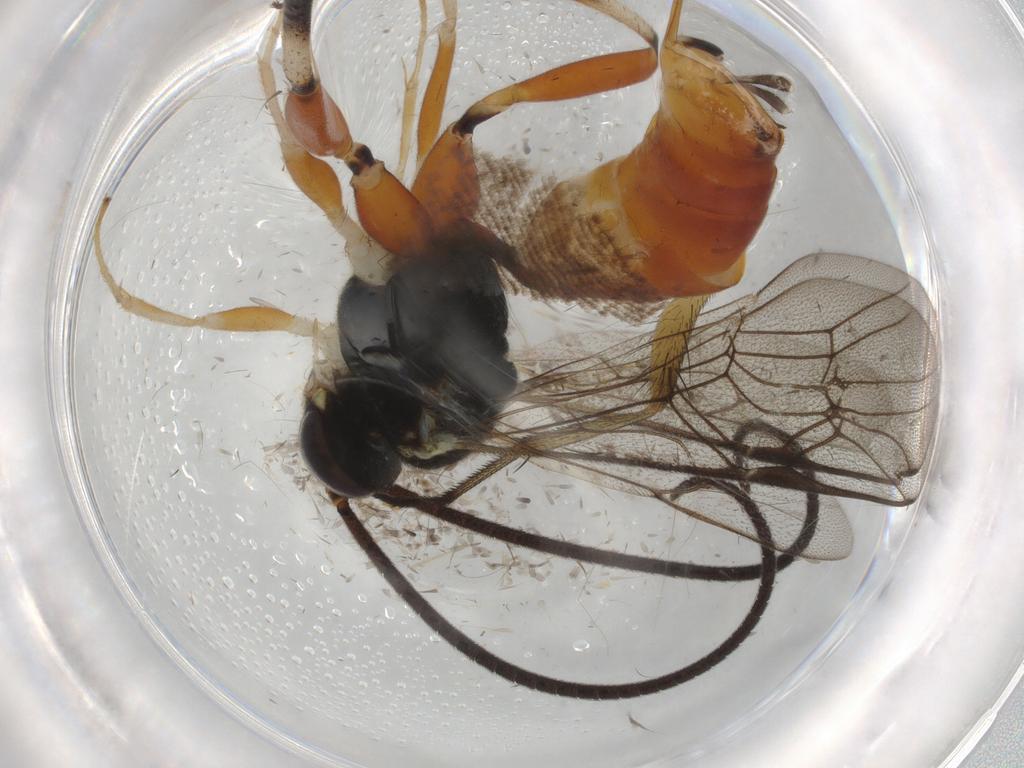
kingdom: Animalia
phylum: Arthropoda
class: Insecta
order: Hymenoptera
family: Ichneumonidae
